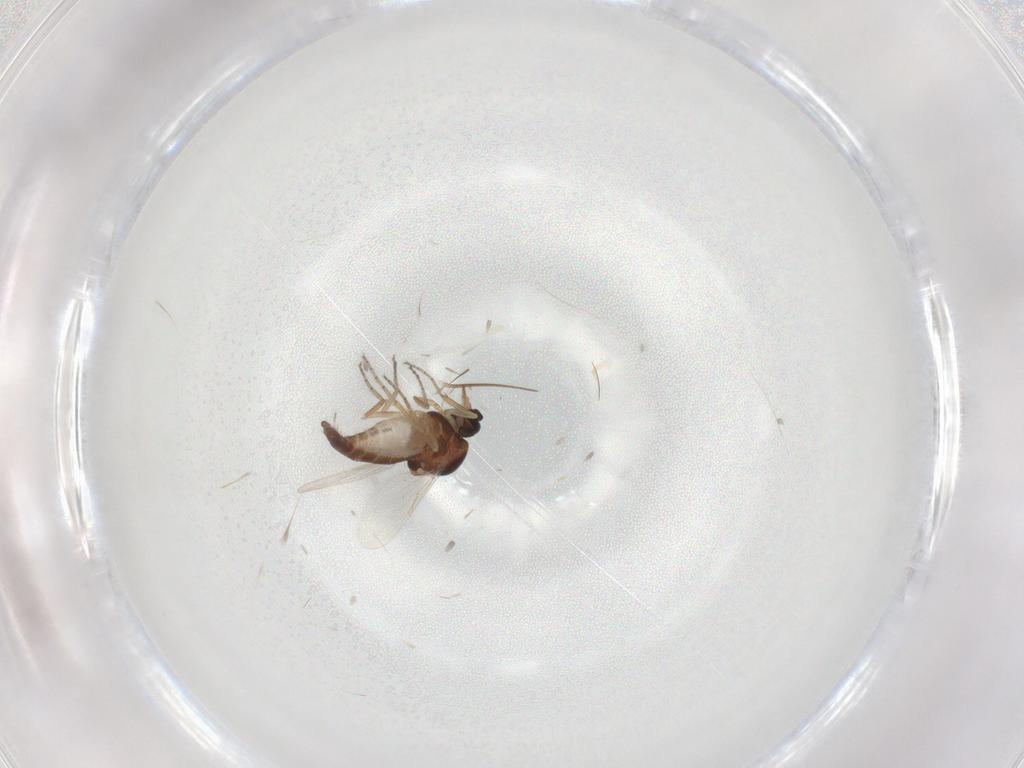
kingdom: Animalia
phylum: Arthropoda
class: Insecta
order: Diptera
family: Ceratopogonidae
